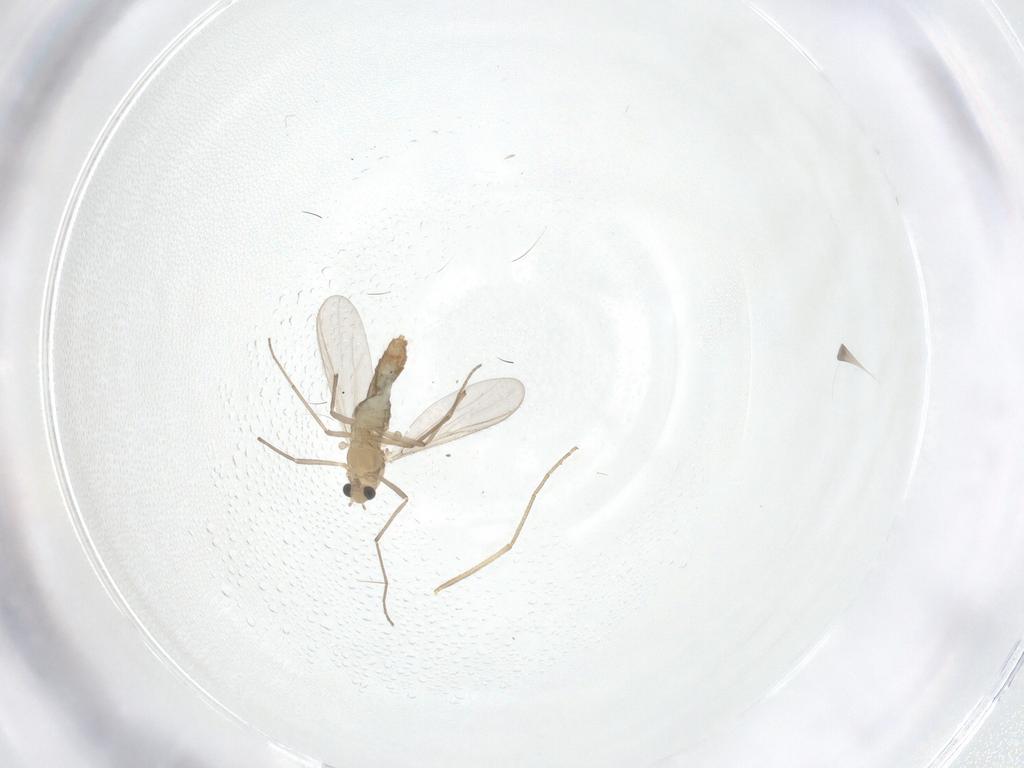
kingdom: Animalia
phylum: Arthropoda
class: Insecta
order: Diptera
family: Chironomidae
